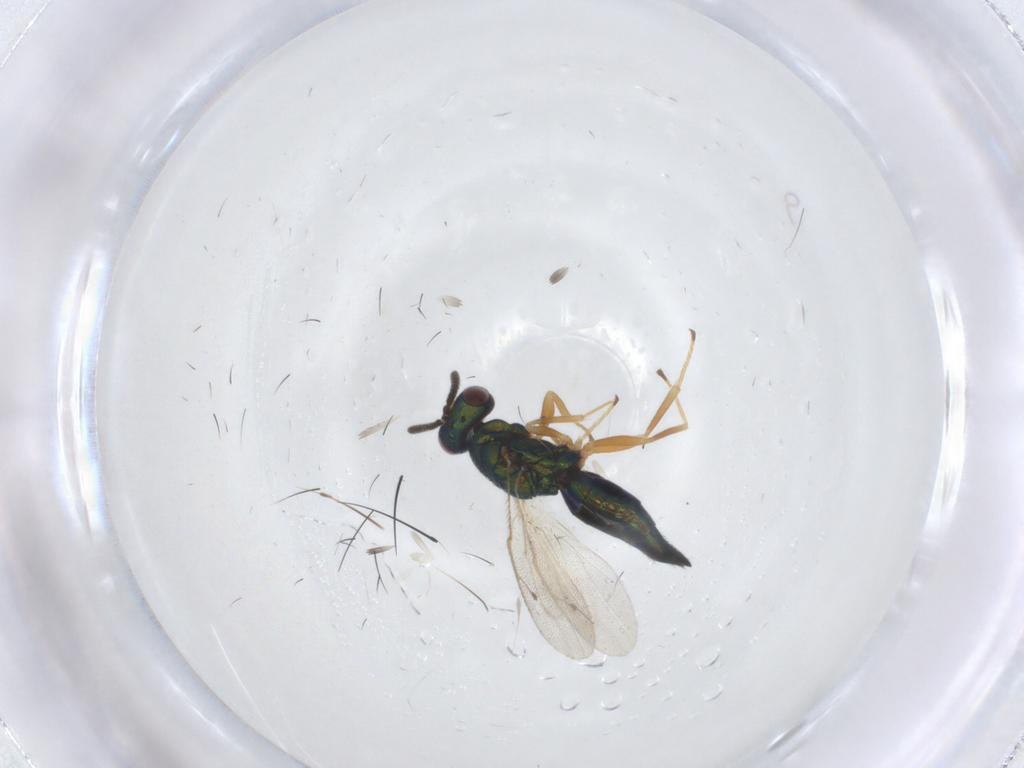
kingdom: Animalia
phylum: Arthropoda
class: Insecta
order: Hymenoptera
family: Pteromalidae
